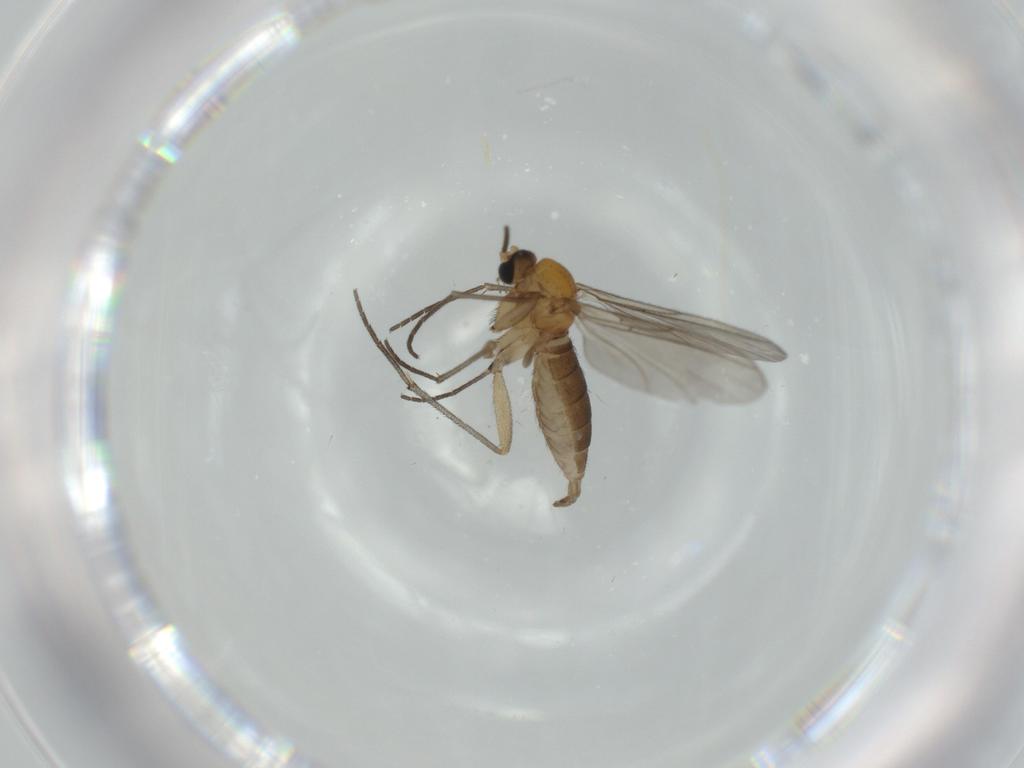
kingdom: Animalia
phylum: Arthropoda
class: Insecta
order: Diptera
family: Sciaridae
